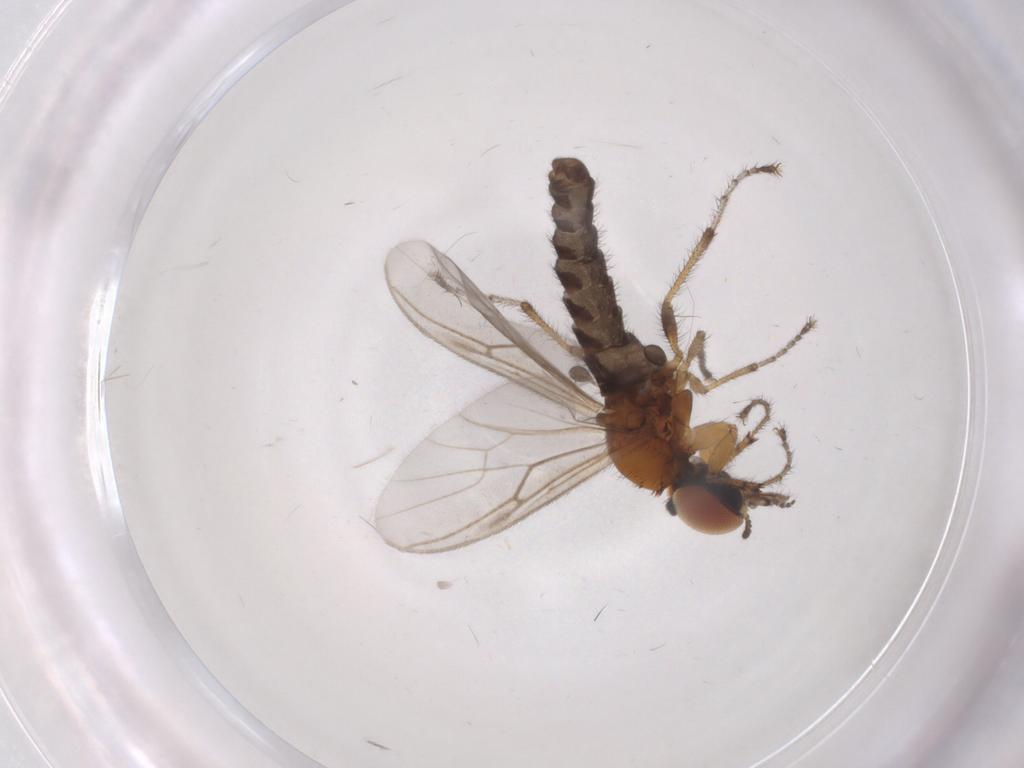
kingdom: Animalia
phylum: Arthropoda
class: Insecta
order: Diptera
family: Bibionidae
